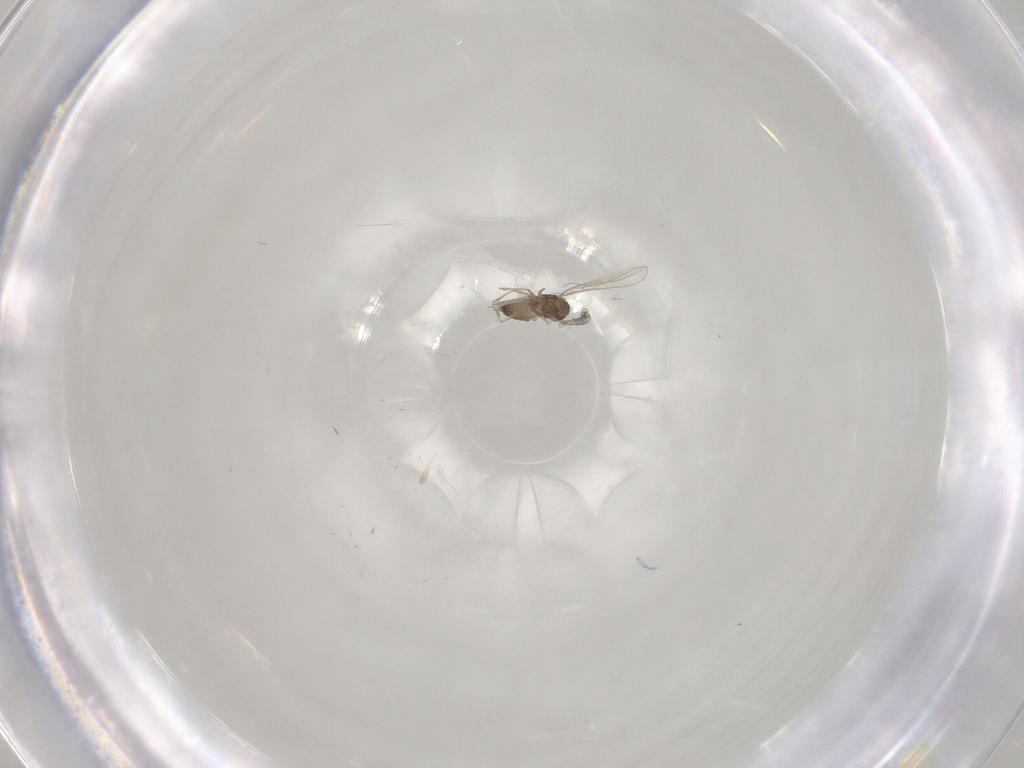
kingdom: Animalia
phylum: Arthropoda
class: Insecta
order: Diptera
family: Cecidomyiidae
